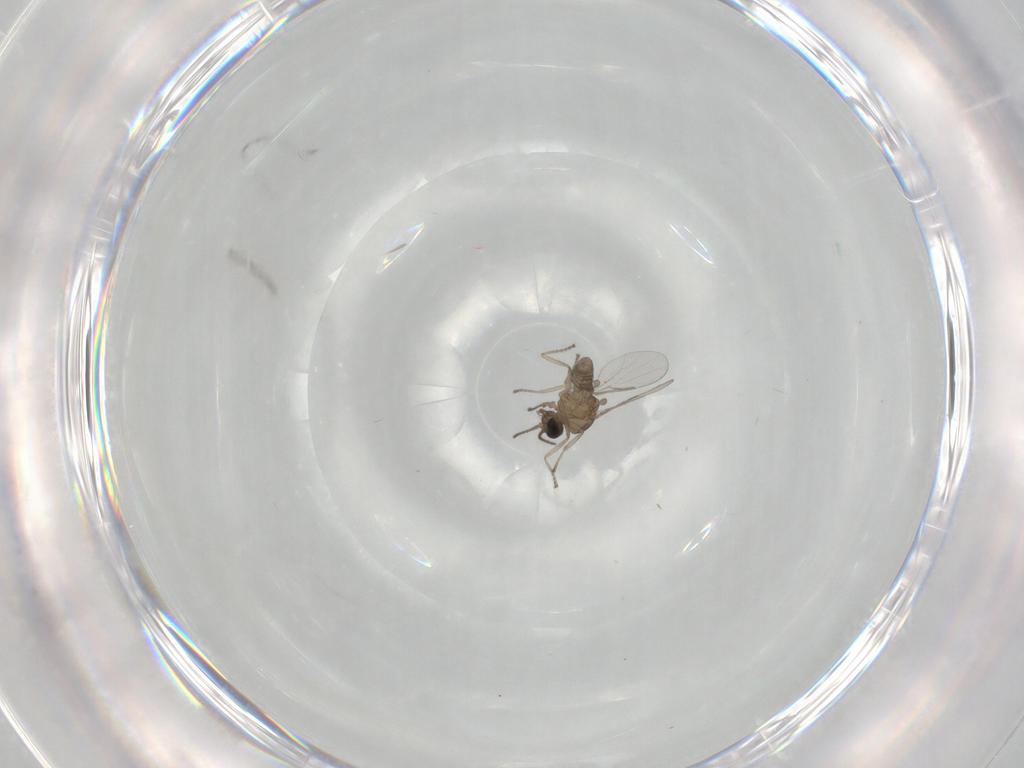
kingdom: Animalia
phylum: Arthropoda
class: Insecta
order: Diptera
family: Ceratopogonidae
